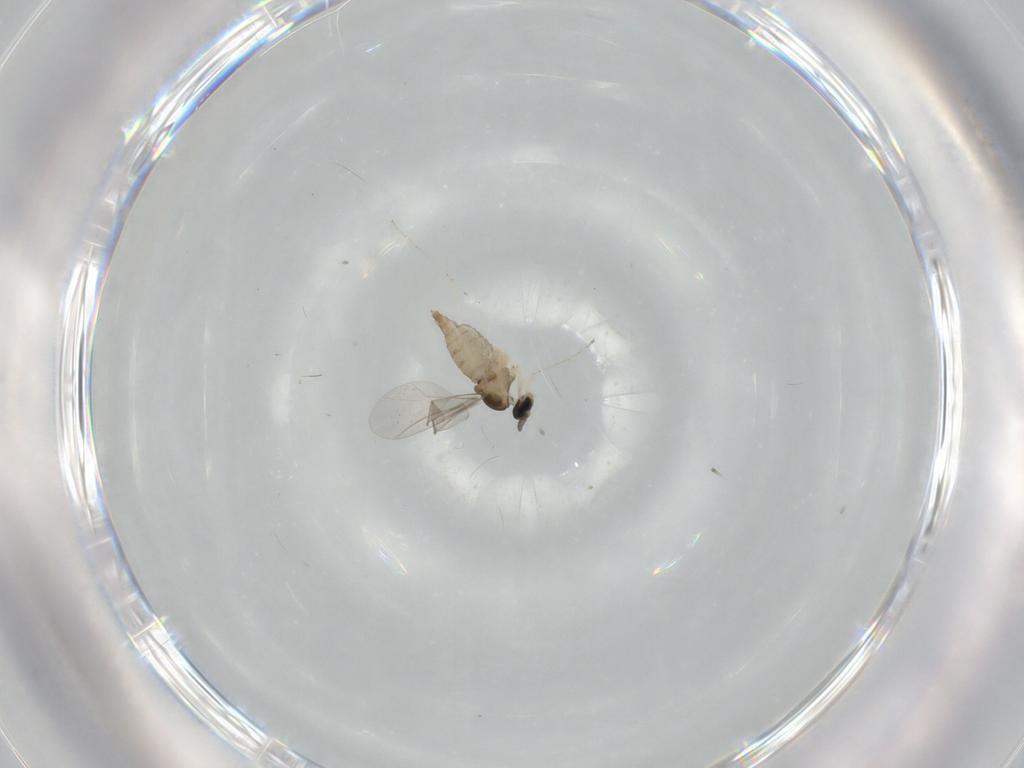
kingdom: Animalia
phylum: Arthropoda
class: Insecta
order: Diptera
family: Cecidomyiidae
